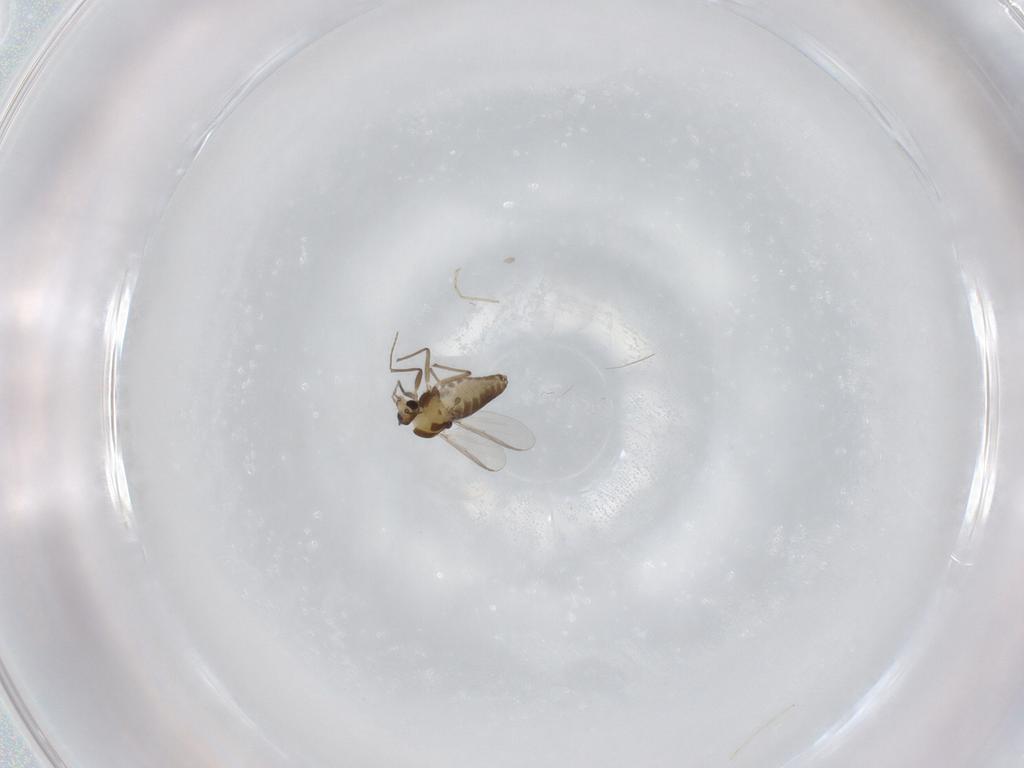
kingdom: Animalia
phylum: Arthropoda
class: Insecta
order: Diptera
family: Chironomidae
